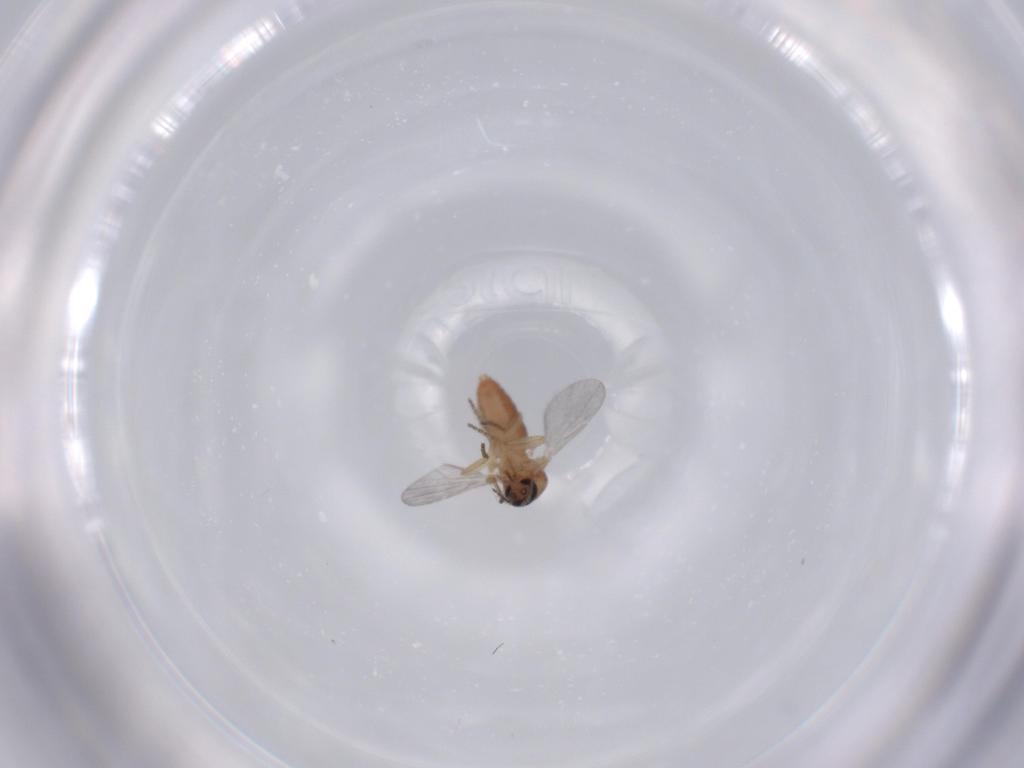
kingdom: Animalia
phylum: Arthropoda
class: Insecta
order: Diptera
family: Ceratopogonidae
